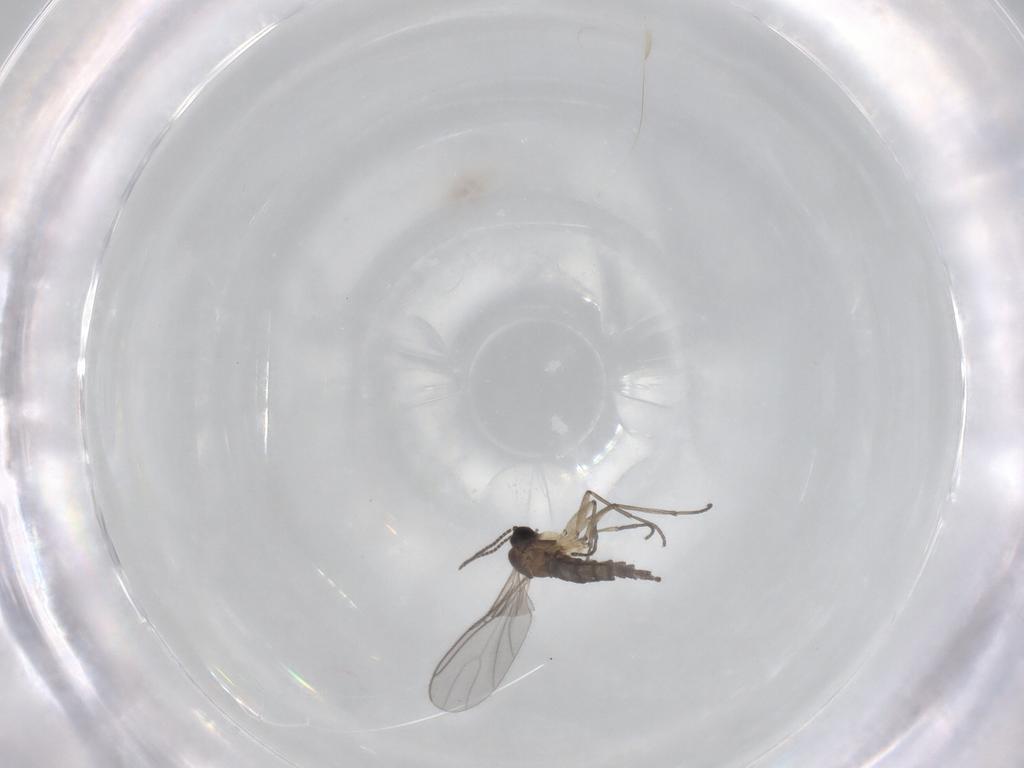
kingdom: Animalia
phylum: Arthropoda
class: Insecta
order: Diptera
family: Sciaridae
